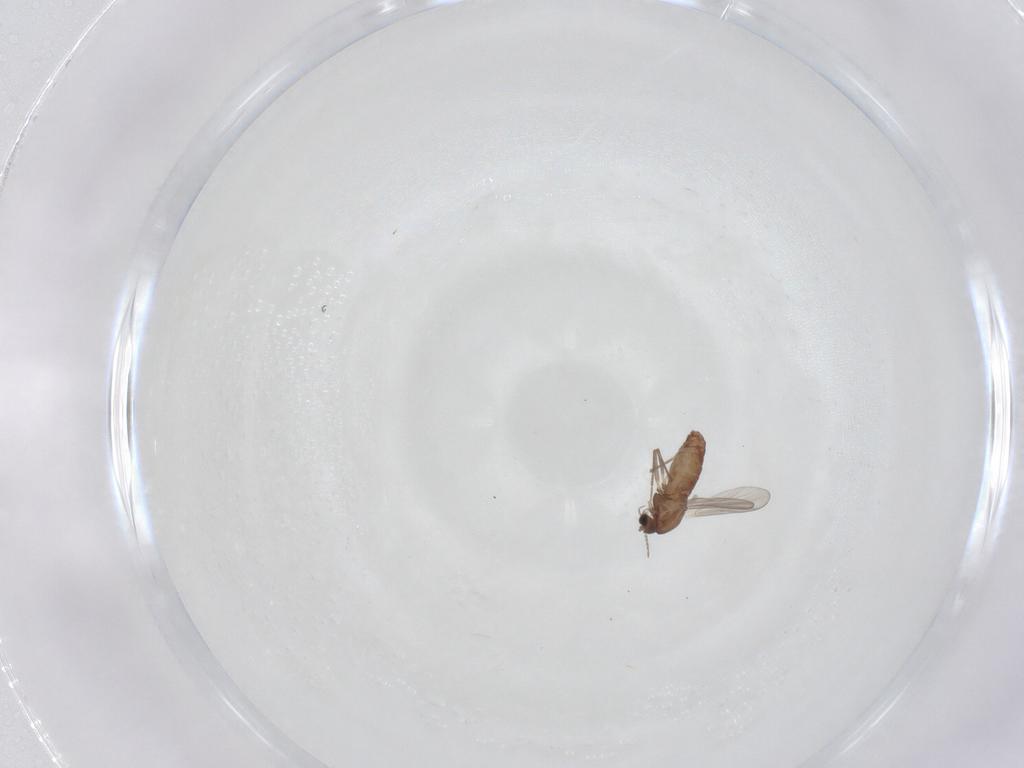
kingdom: Animalia
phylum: Arthropoda
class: Insecta
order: Diptera
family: Chironomidae
